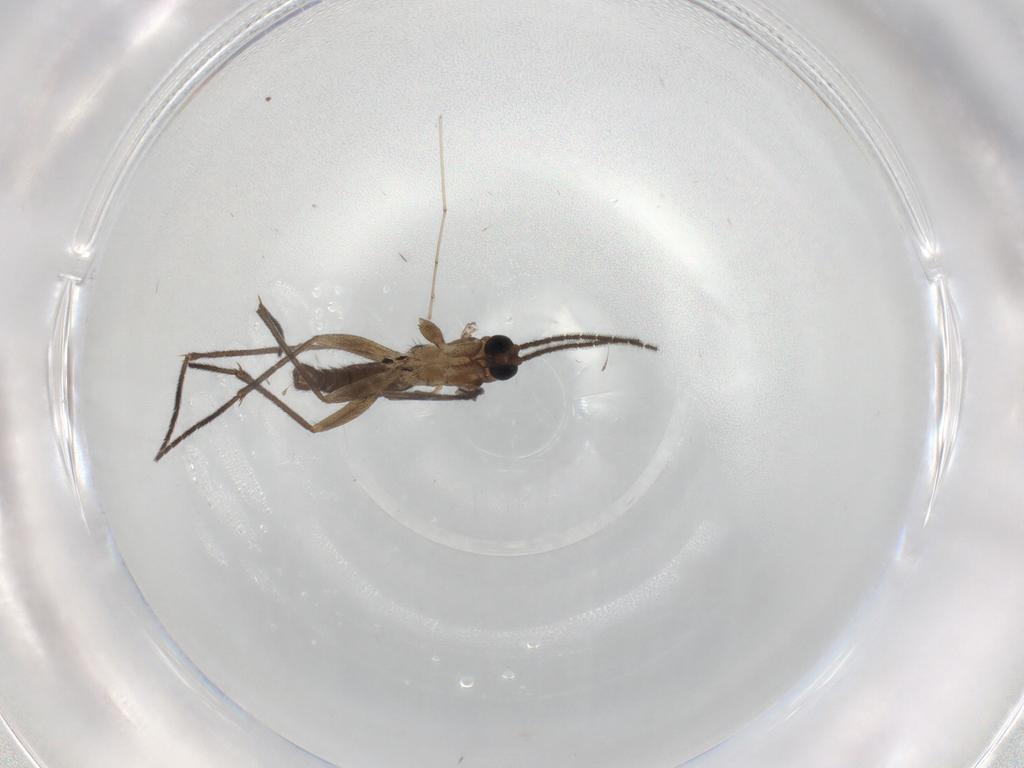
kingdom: Animalia
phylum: Arthropoda
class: Insecta
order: Diptera
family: Sciaridae
